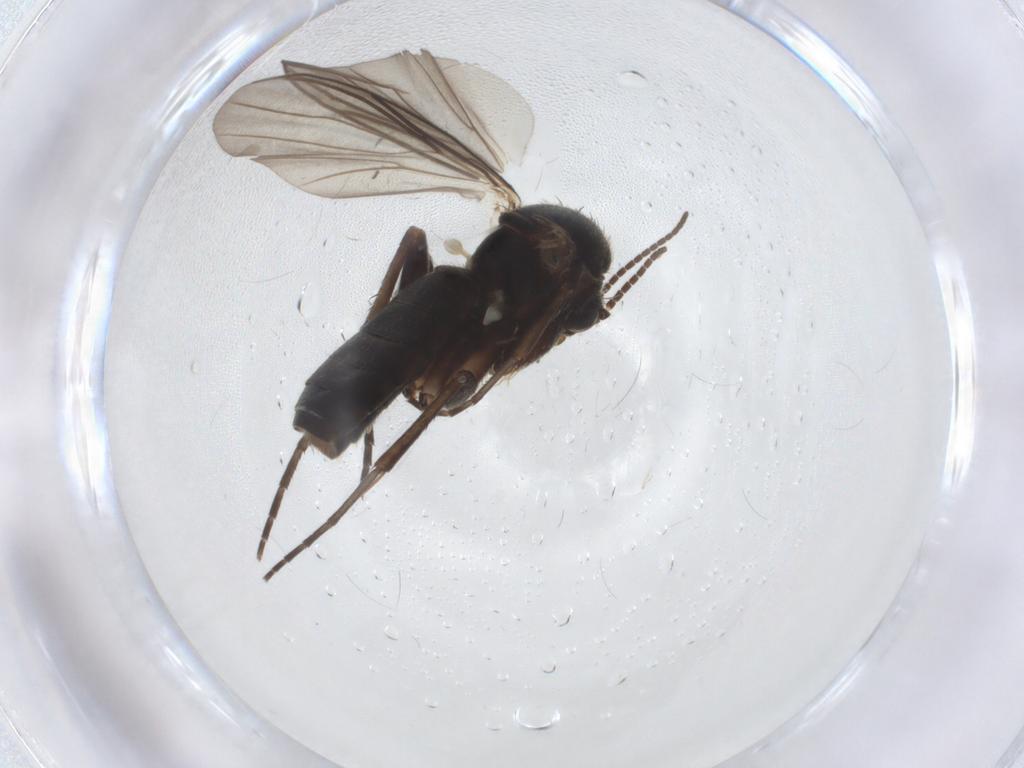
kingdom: Animalia
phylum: Arthropoda
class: Insecta
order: Diptera
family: Mycetophilidae
